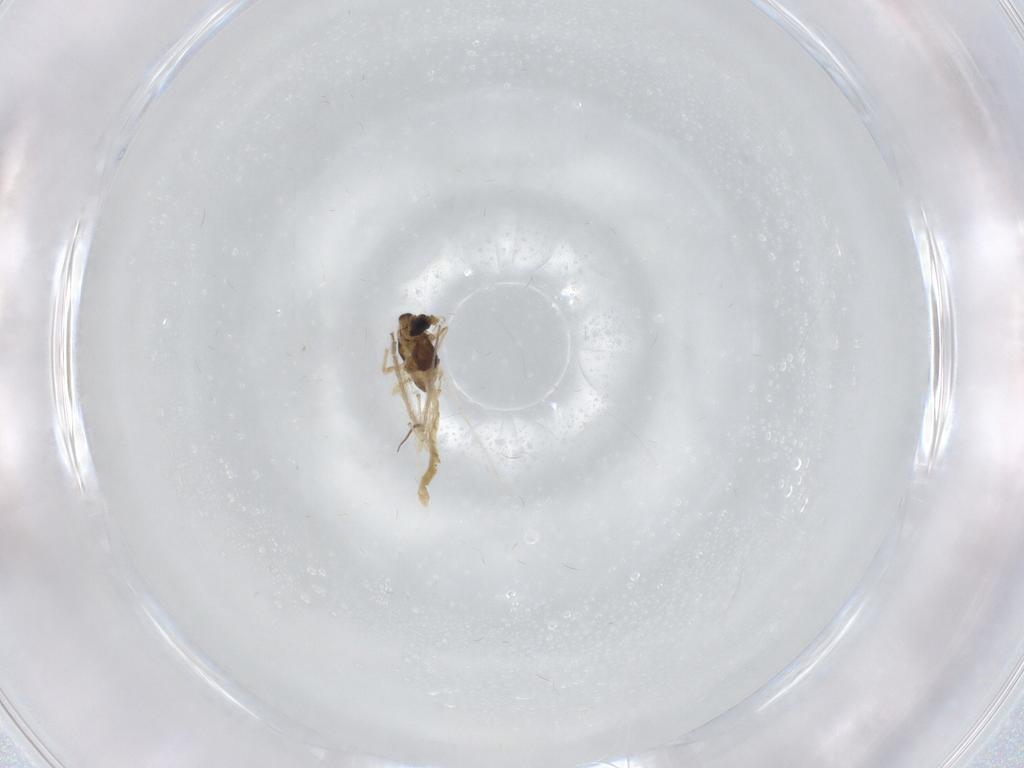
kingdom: Animalia
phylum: Arthropoda
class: Insecta
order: Diptera
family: Chironomidae
